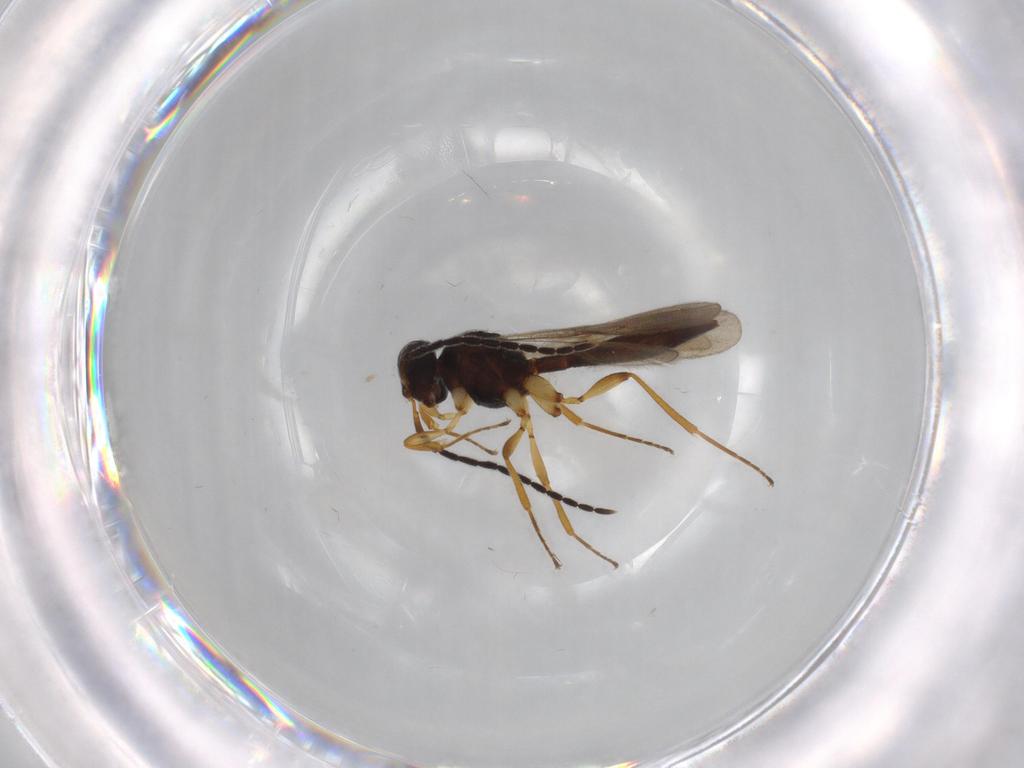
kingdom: Animalia
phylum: Arthropoda
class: Insecta
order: Hymenoptera
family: Scelionidae
